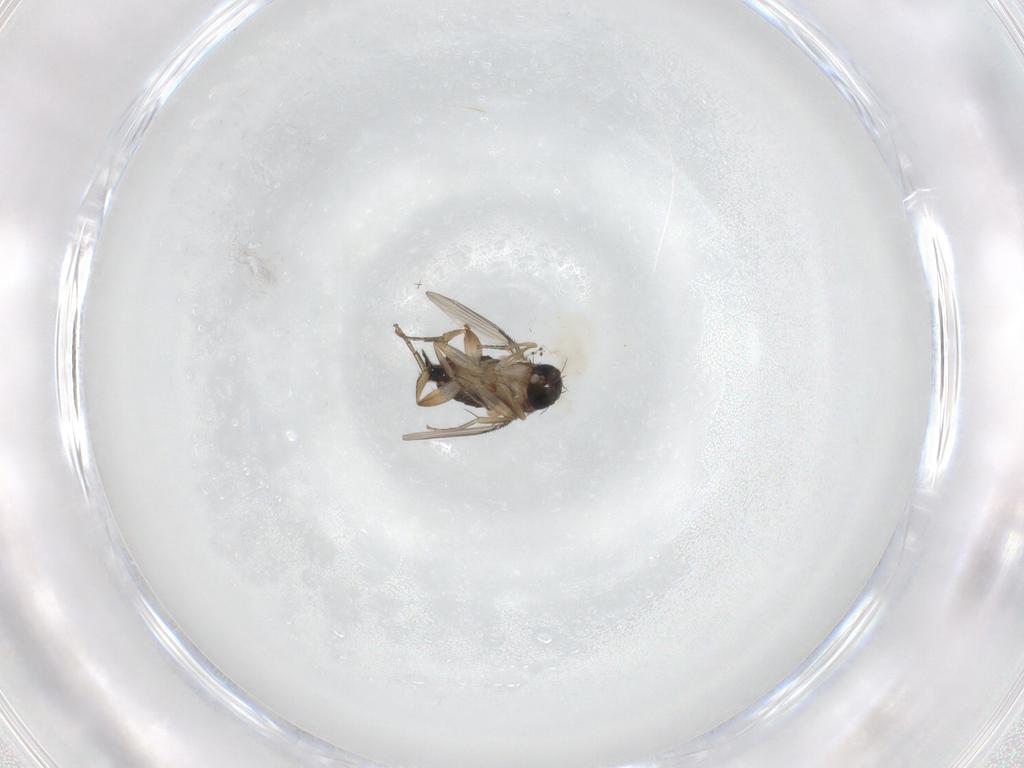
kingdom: Animalia
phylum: Arthropoda
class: Insecta
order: Diptera
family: Phoridae
